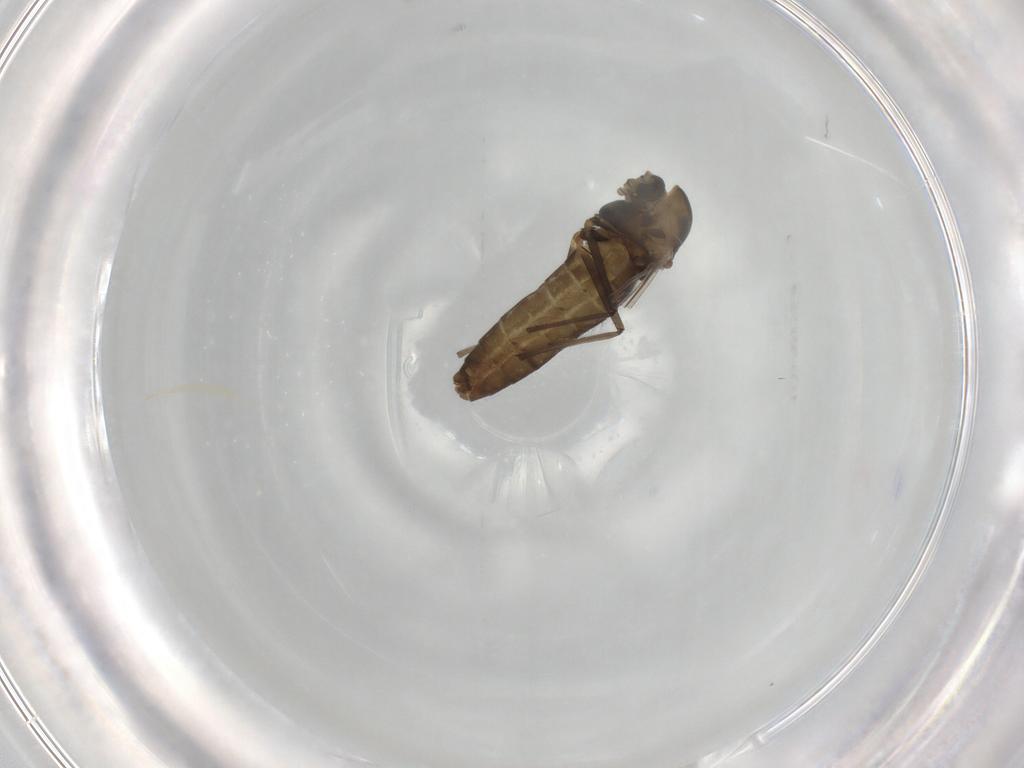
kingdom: Animalia
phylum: Arthropoda
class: Insecta
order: Diptera
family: Chironomidae
